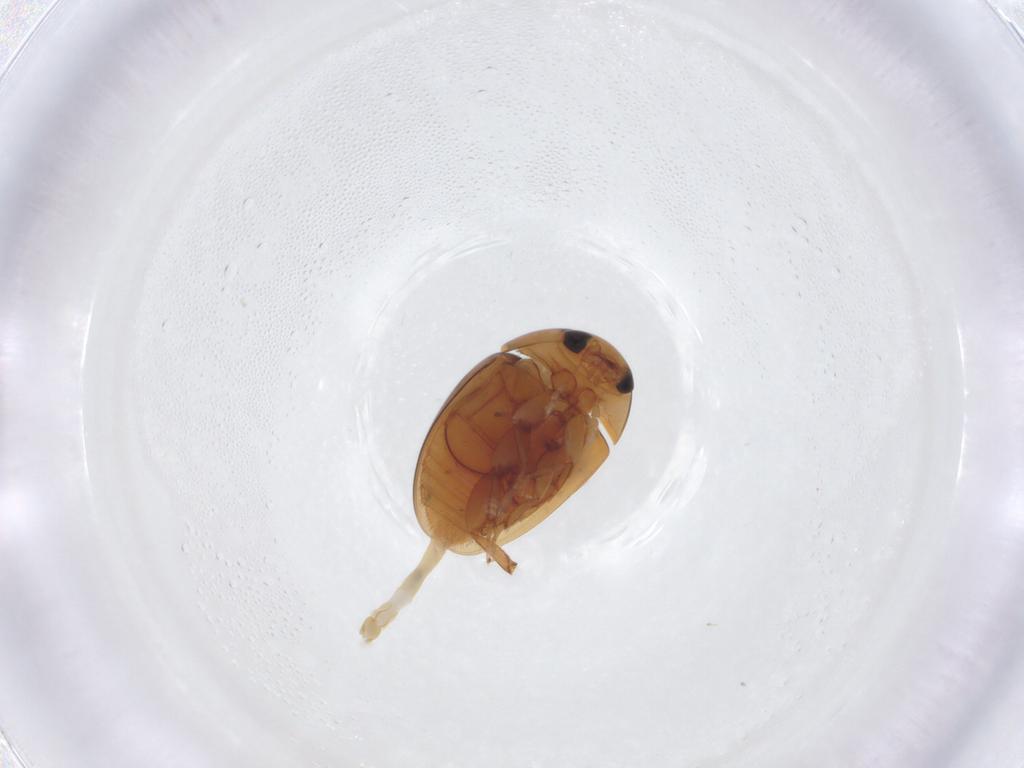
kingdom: Animalia
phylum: Arthropoda
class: Insecta
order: Coleoptera
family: Phalacridae
